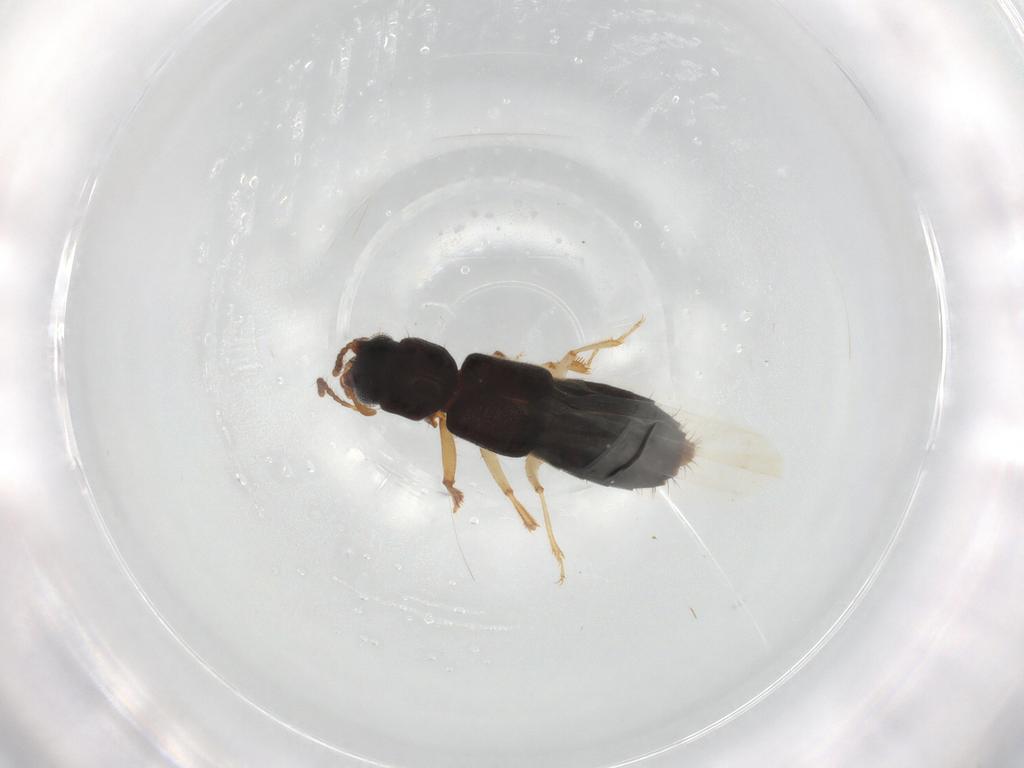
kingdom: Animalia
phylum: Arthropoda
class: Insecta
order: Coleoptera
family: Staphylinidae
